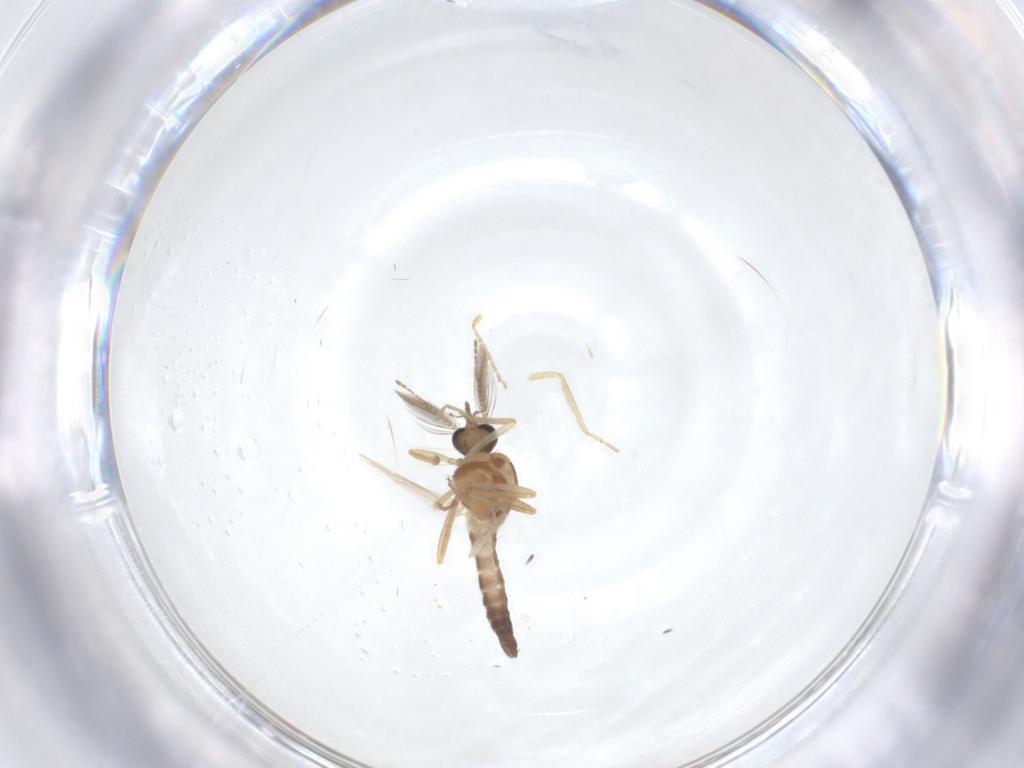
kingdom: Animalia
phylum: Arthropoda
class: Insecta
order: Diptera
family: Ceratopogonidae
